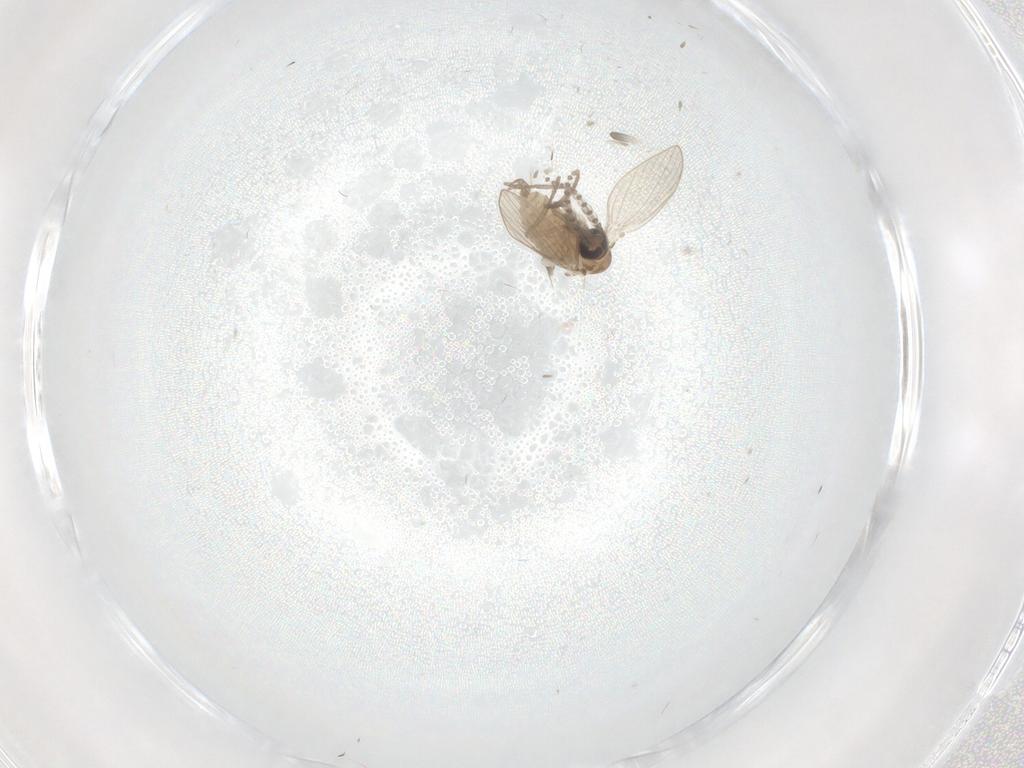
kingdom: Animalia
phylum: Arthropoda
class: Insecta
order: Diptera
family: Psychodidae
